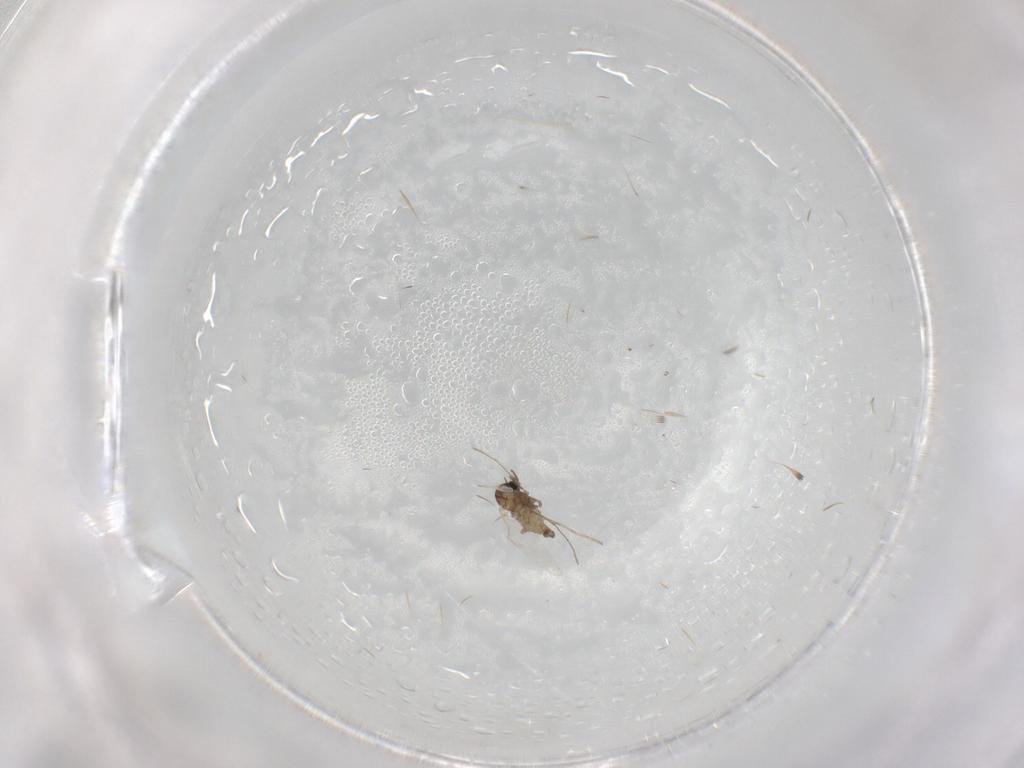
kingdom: Animalia
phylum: Arthropoda
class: Insecta
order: Diptera
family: Cecidomyiidae
